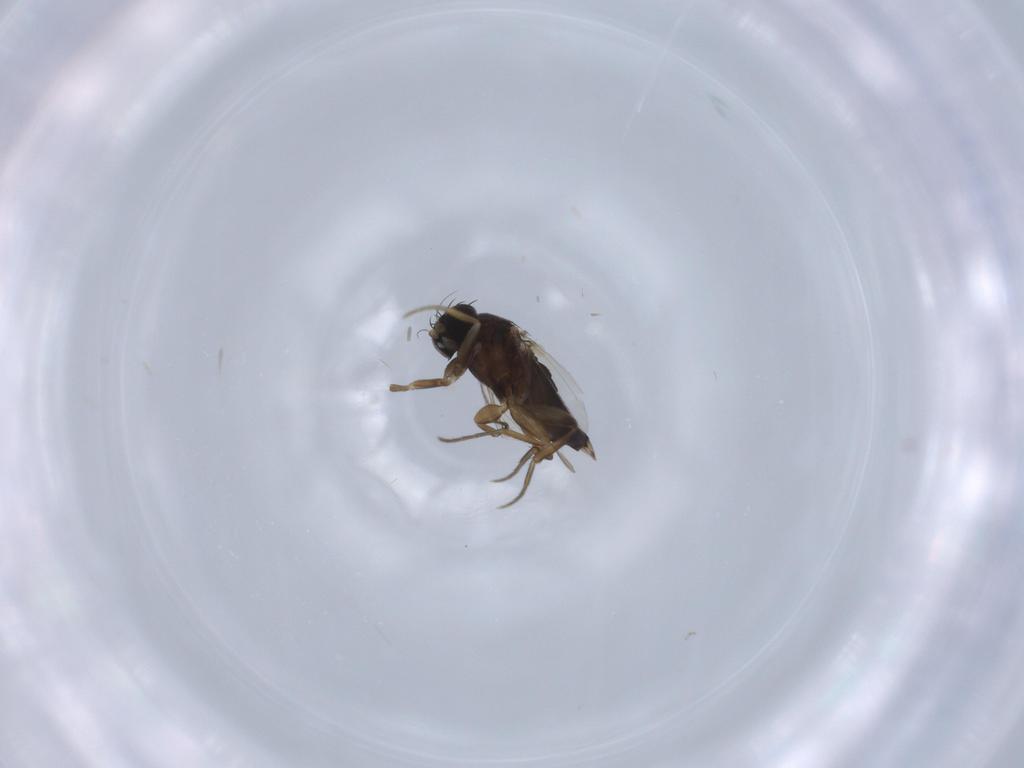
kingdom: Animalia
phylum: Arthropoda
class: Insecta
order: Diptera
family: Phoridae
